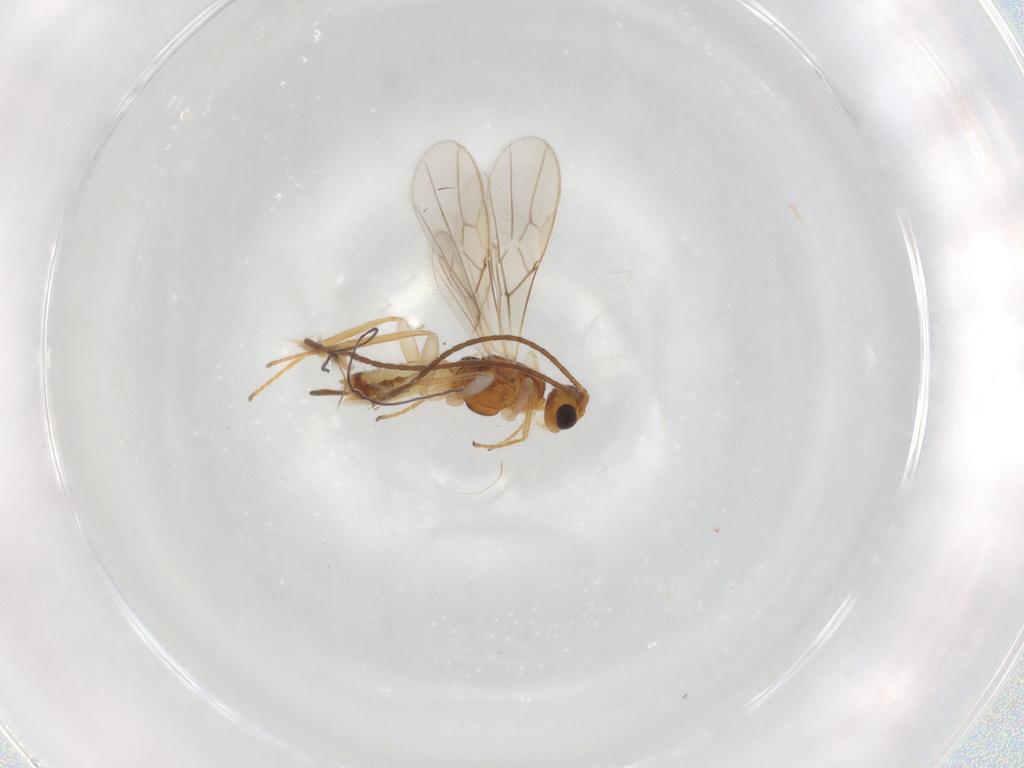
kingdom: Animalia
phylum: Arthropoda
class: Insecta
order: Hymenoptera
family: Braconidae
